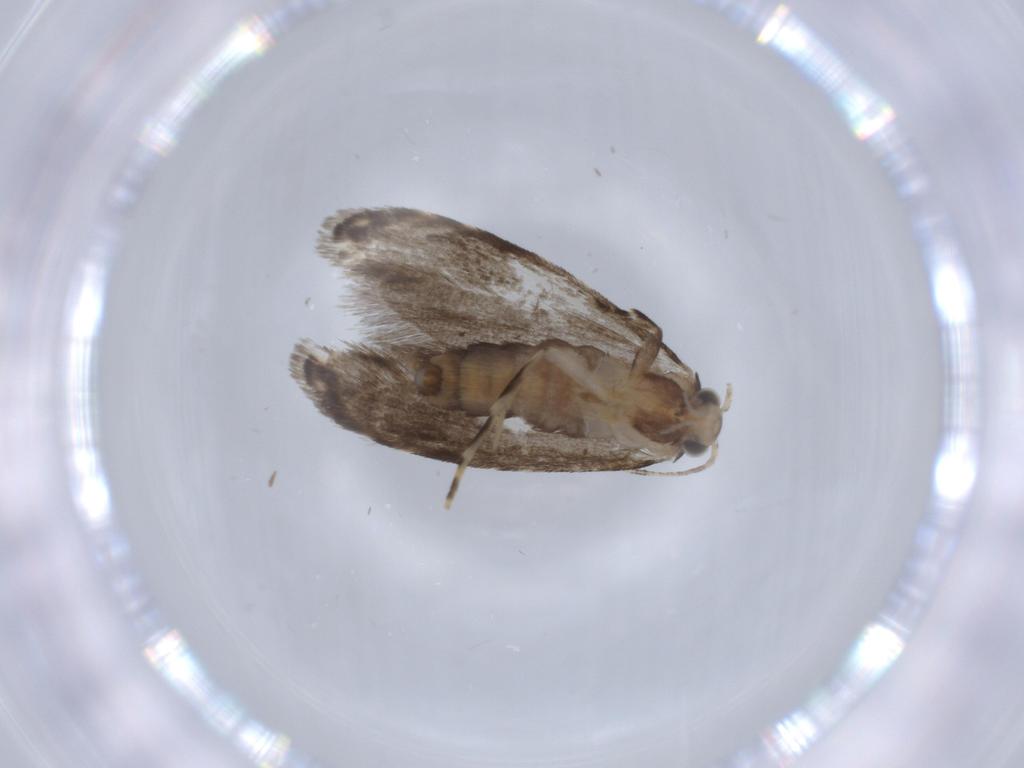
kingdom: Animalia
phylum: Arthropoda
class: Insecta
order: Lepidoptera
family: Tineidae
